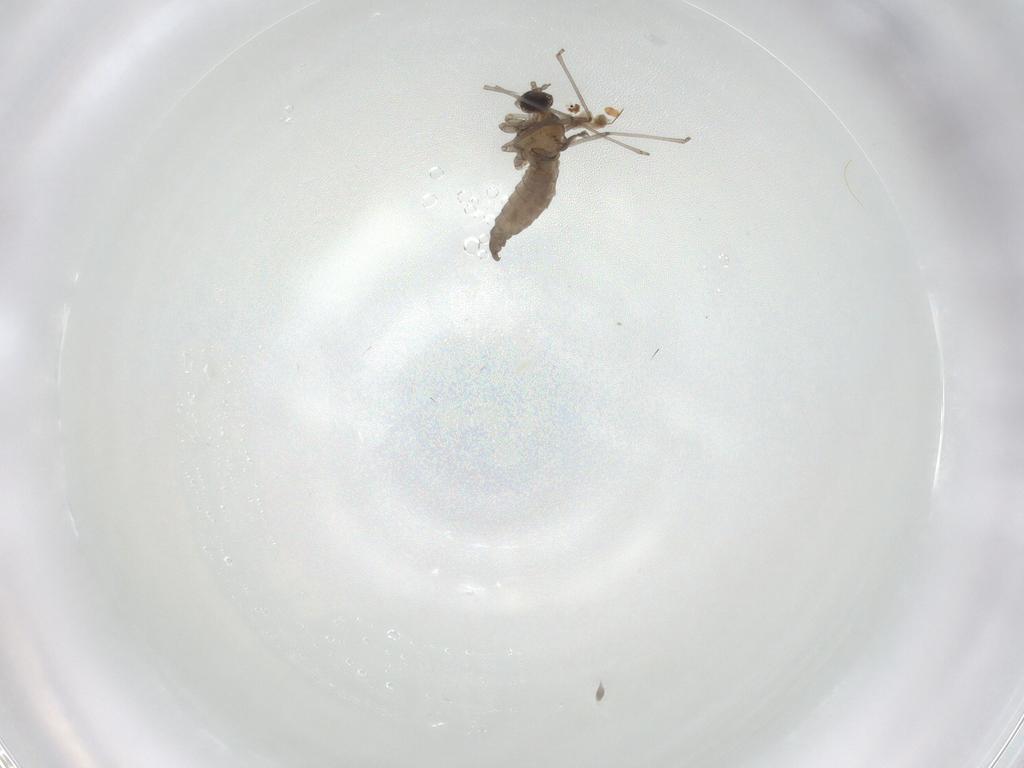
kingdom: Animalia
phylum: Arthropoda
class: Insecta
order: Diptera
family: Cecidomyiidae
